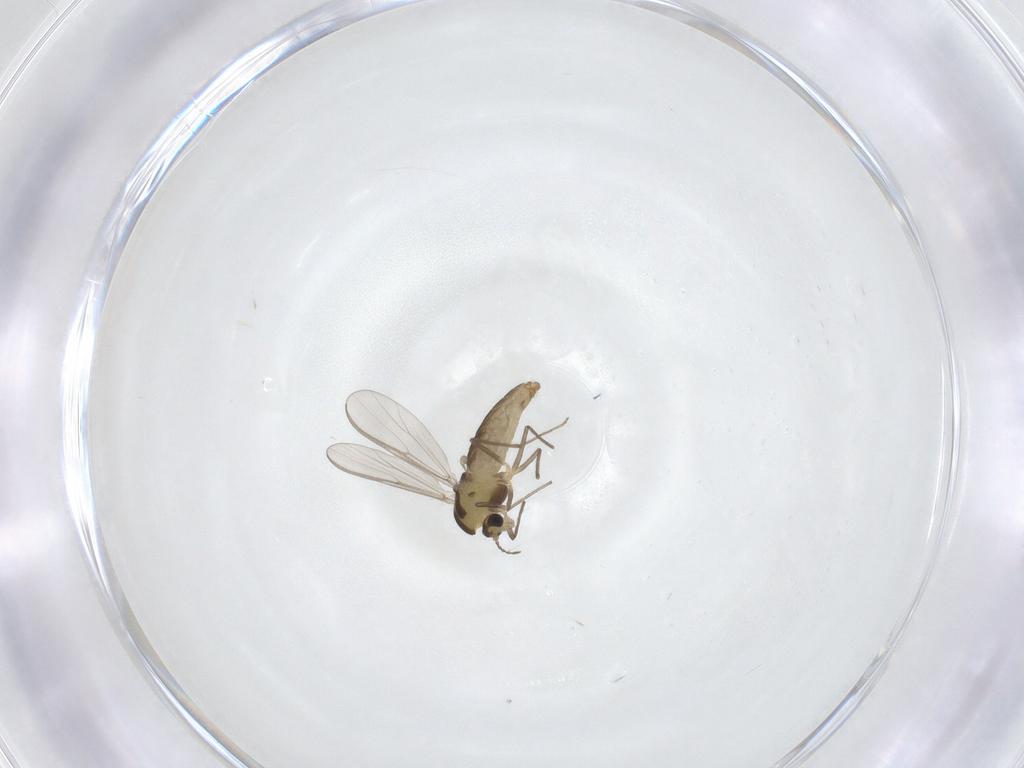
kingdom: Animalia
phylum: Arthropoda
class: Insecta
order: Diptera
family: Chironomidae
